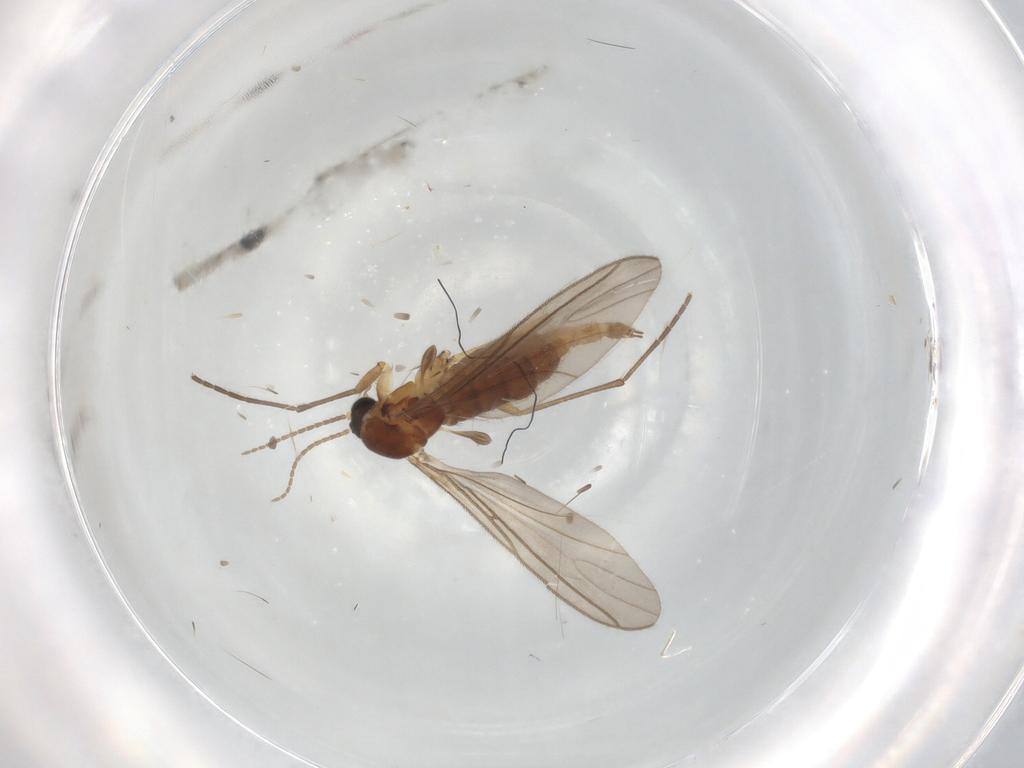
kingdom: Animalia
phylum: Arthropoda
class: Insecta
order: Diptera
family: Sciaridae
